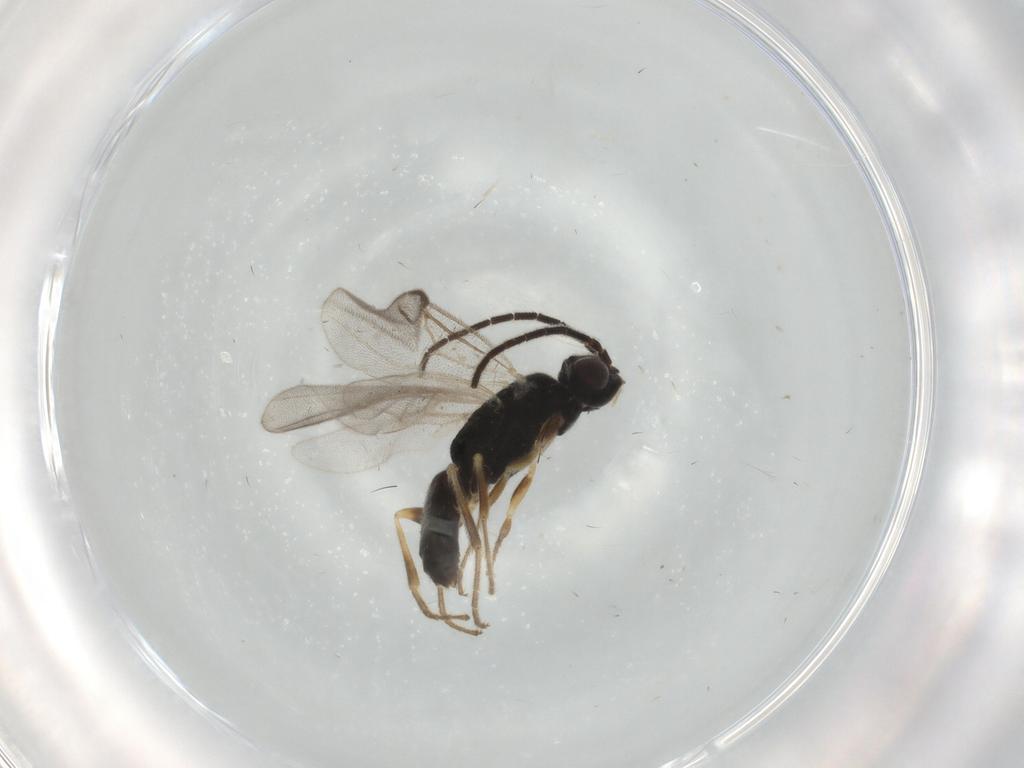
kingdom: Animalia
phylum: Arthropoda
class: Insecta
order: Hymenoptera
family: Dryinidae
